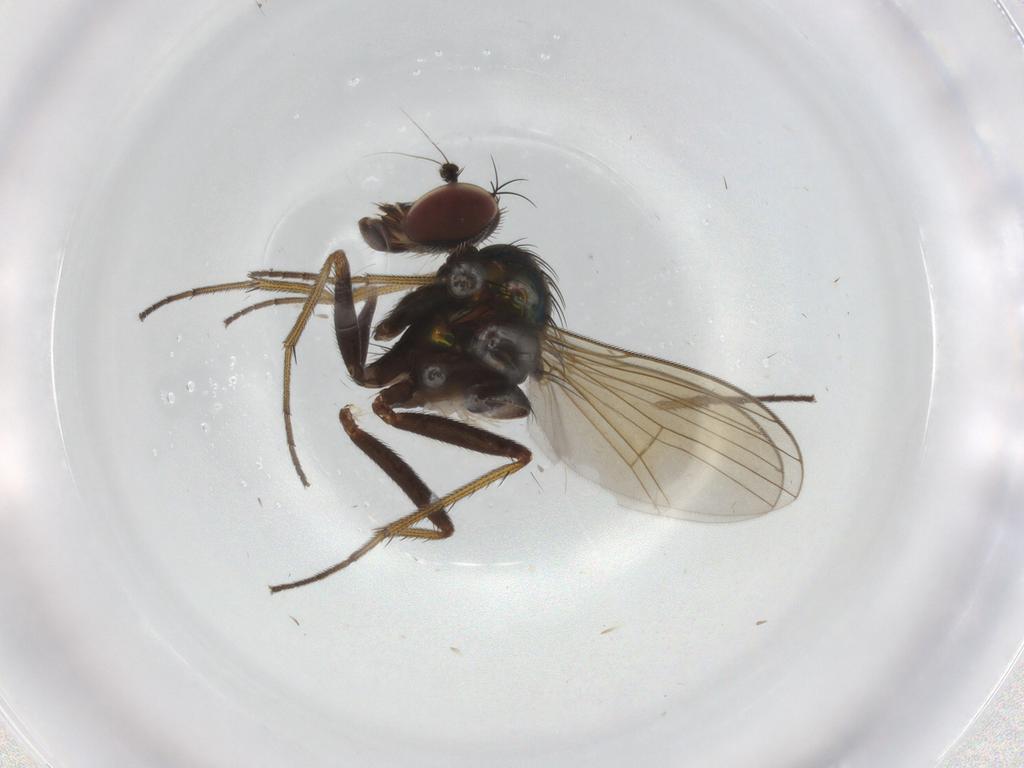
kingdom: Animalia
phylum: Arthropoda
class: Insecta
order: Diptera
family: Dolichopodidae
